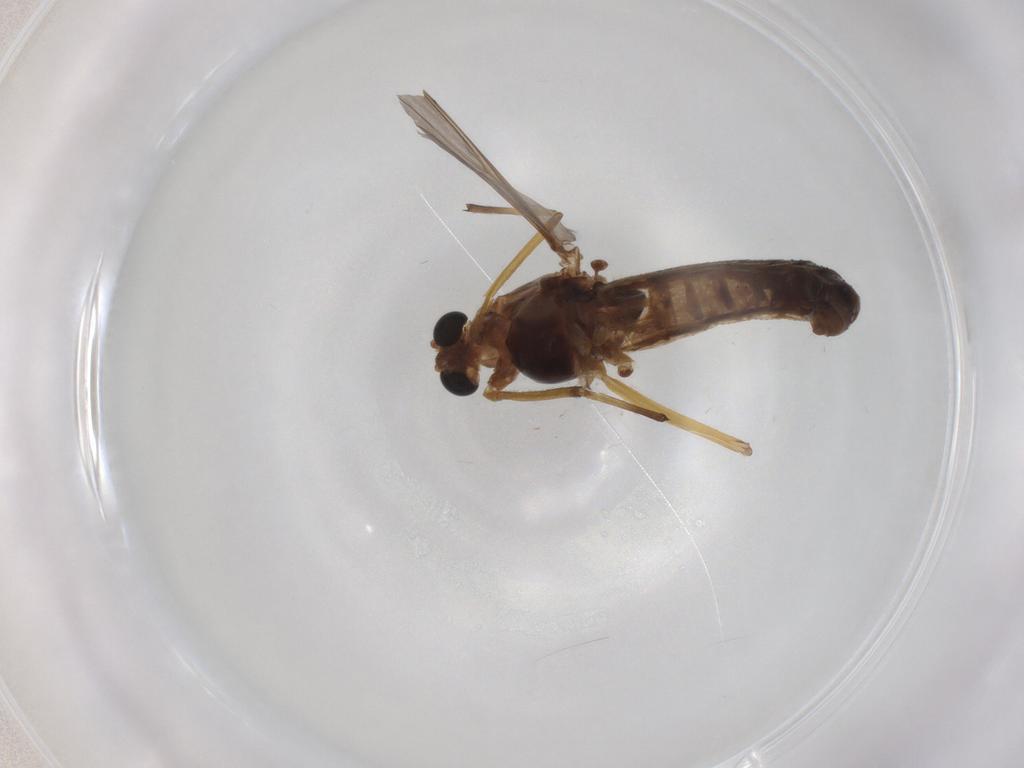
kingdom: Animalia
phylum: Arthropoda
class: Insecta
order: Diptera
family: Chironomidae
